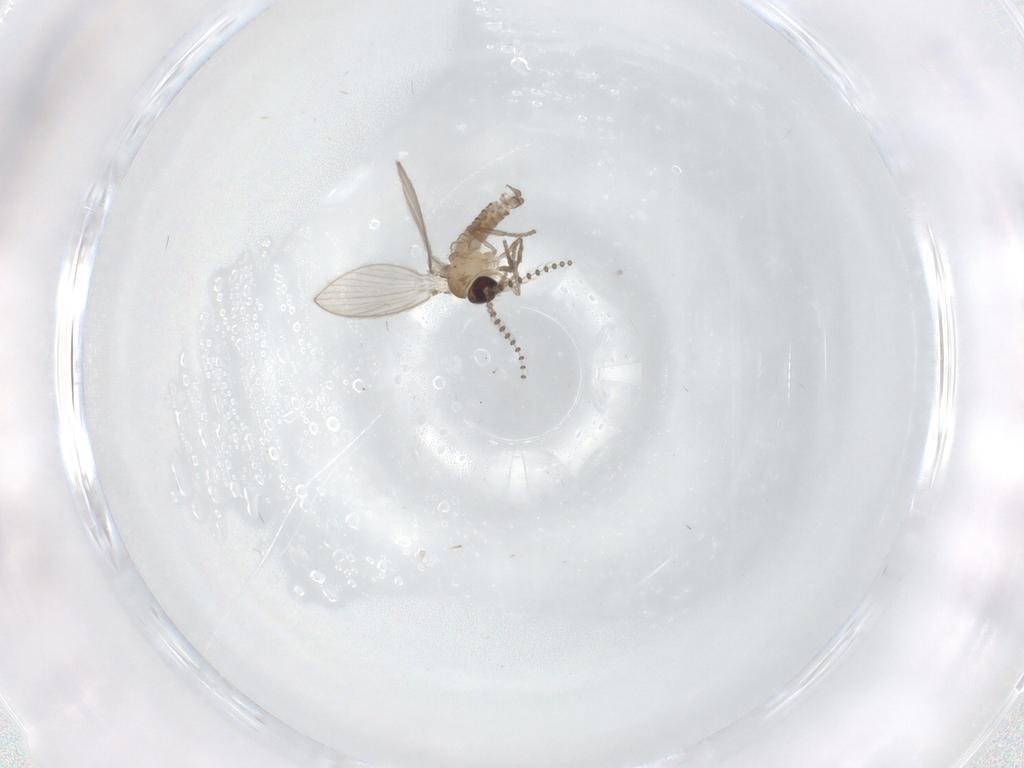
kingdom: Animalia
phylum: Arthropoda
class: Insecta
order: Diptera
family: Psychodidae
